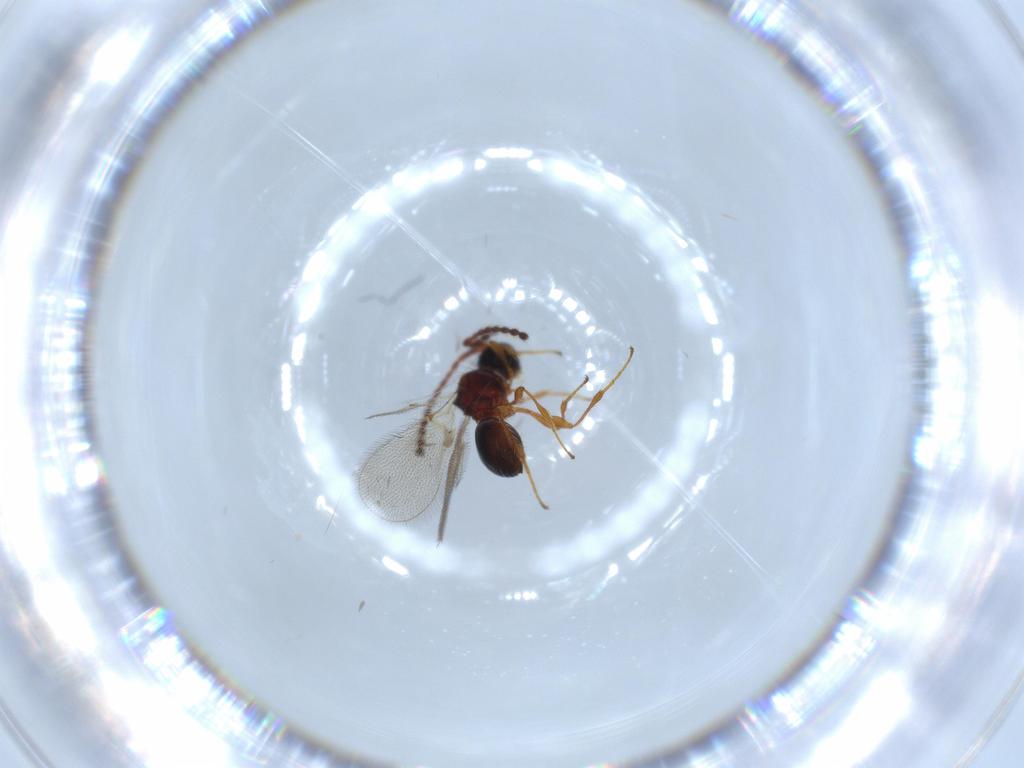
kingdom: Animalia
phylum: Arthropoda
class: Insecta
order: Hymenoptera
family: Diapriidae
